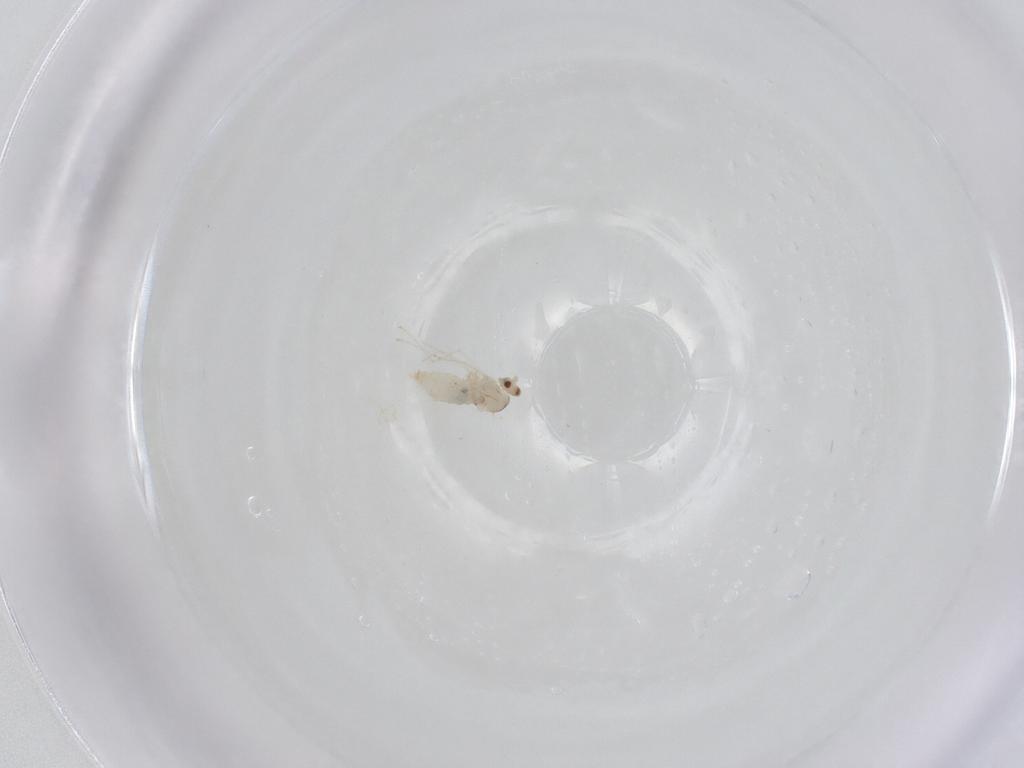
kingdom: Animalia
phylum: Arthropoda
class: Insecta
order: Diptera
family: Cecidomyiidae
